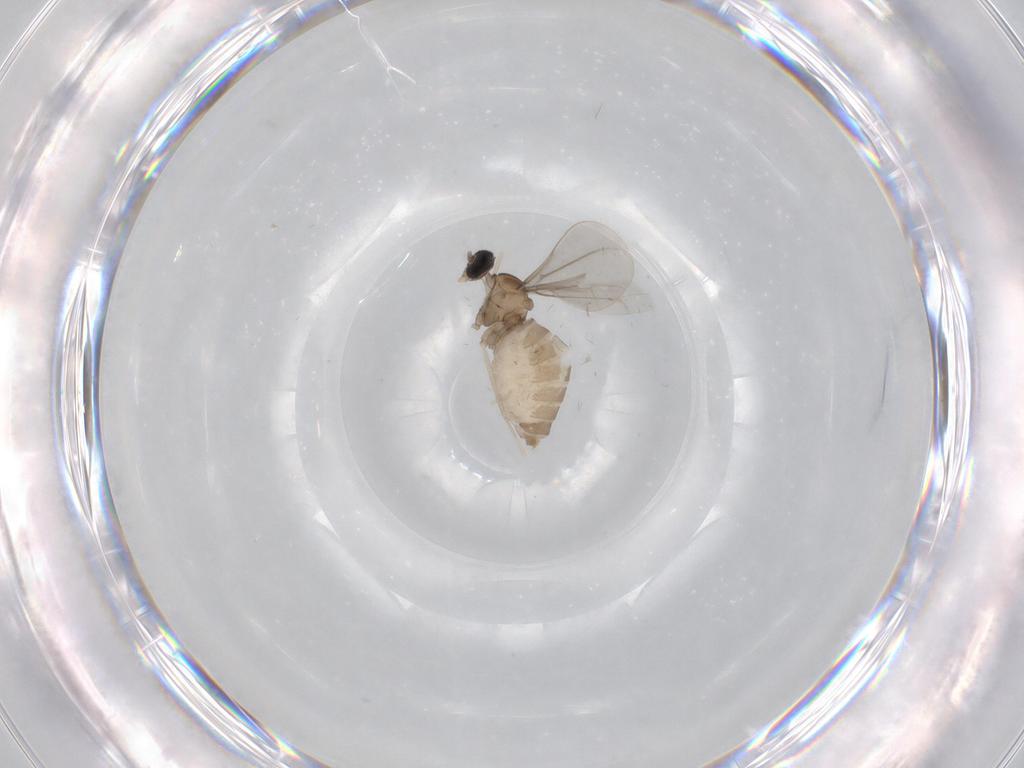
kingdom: Animalia
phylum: Arthropoda
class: Insecta
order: Diptera
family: Cecidomyiidae
